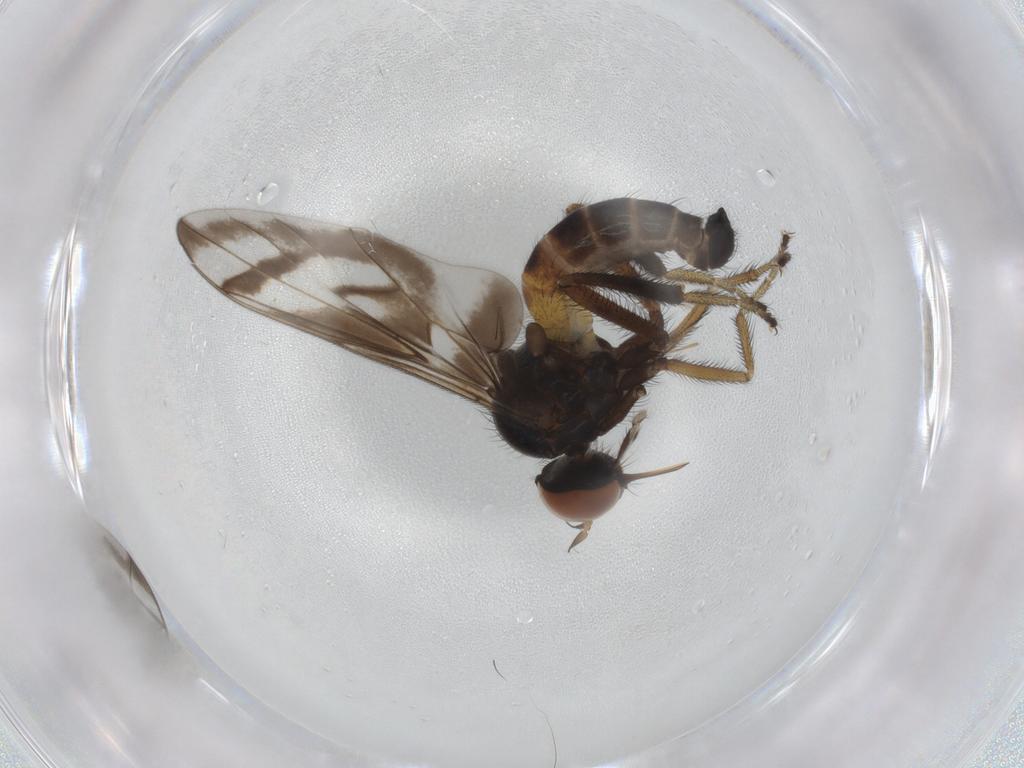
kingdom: Animalia
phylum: Arthropoda
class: Insecta
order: Diptera
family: Empididae
